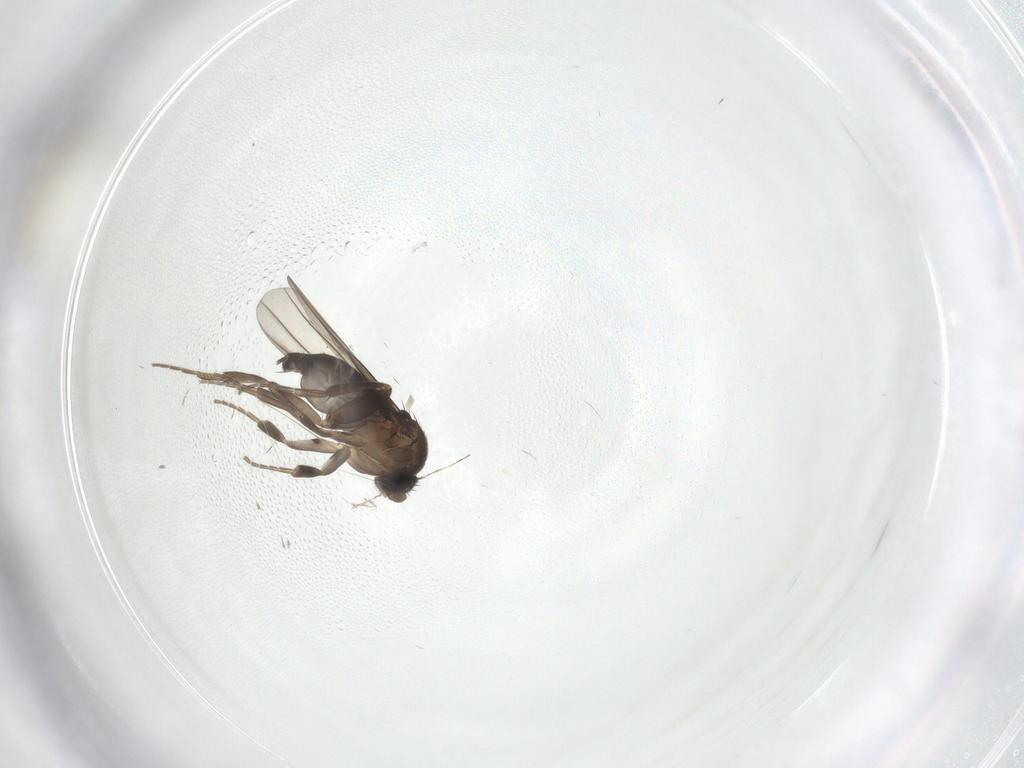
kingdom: Animalia
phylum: Arthropoda
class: Insecta
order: Diptera
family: Phoridae
